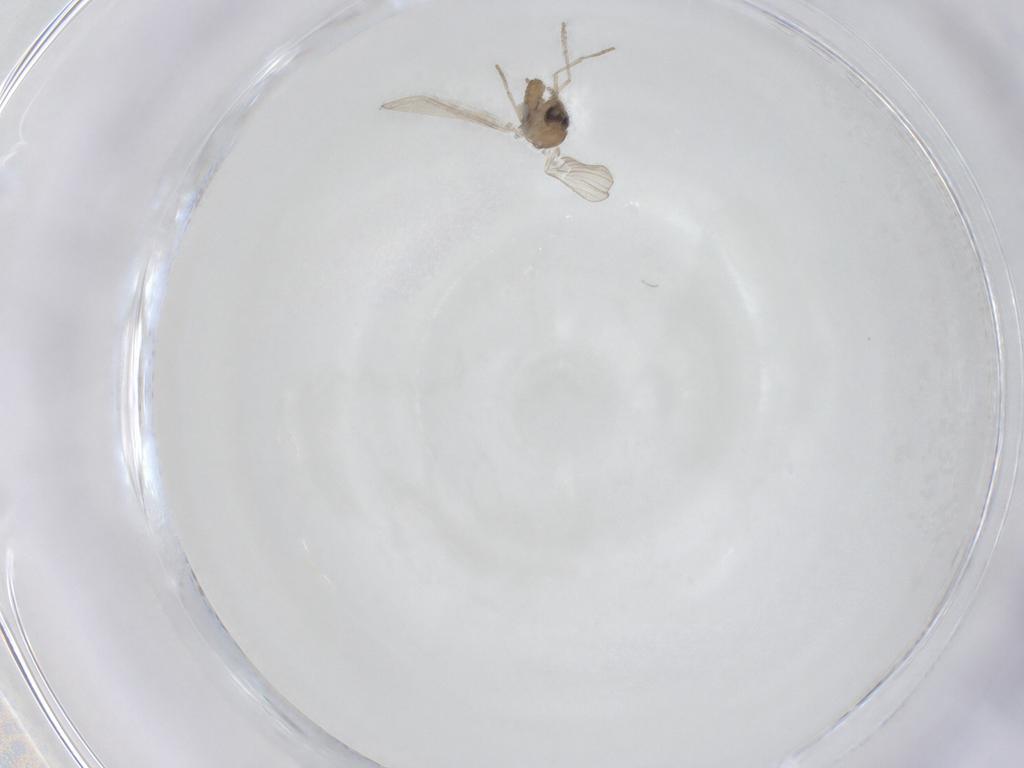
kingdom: Animalia
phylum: Arthropoda
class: Insecta
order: Diptera
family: Psychodidae
